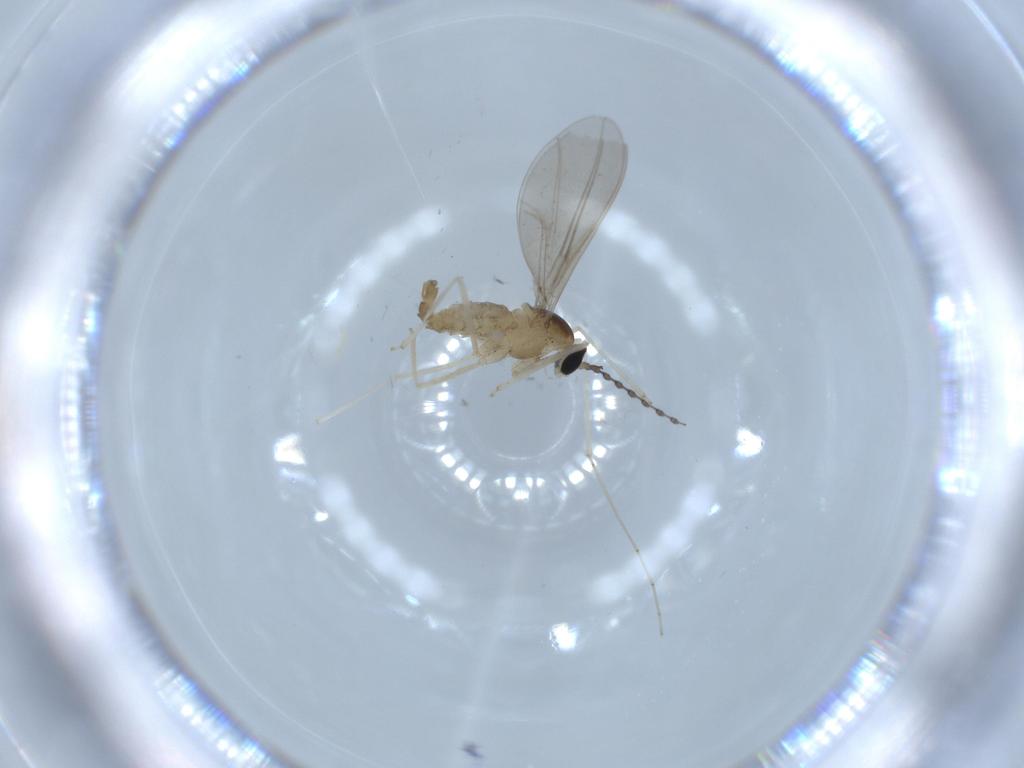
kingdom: Animalia
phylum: Arthropoda
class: Insecta
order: Diptera
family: Cecidomyiidae
